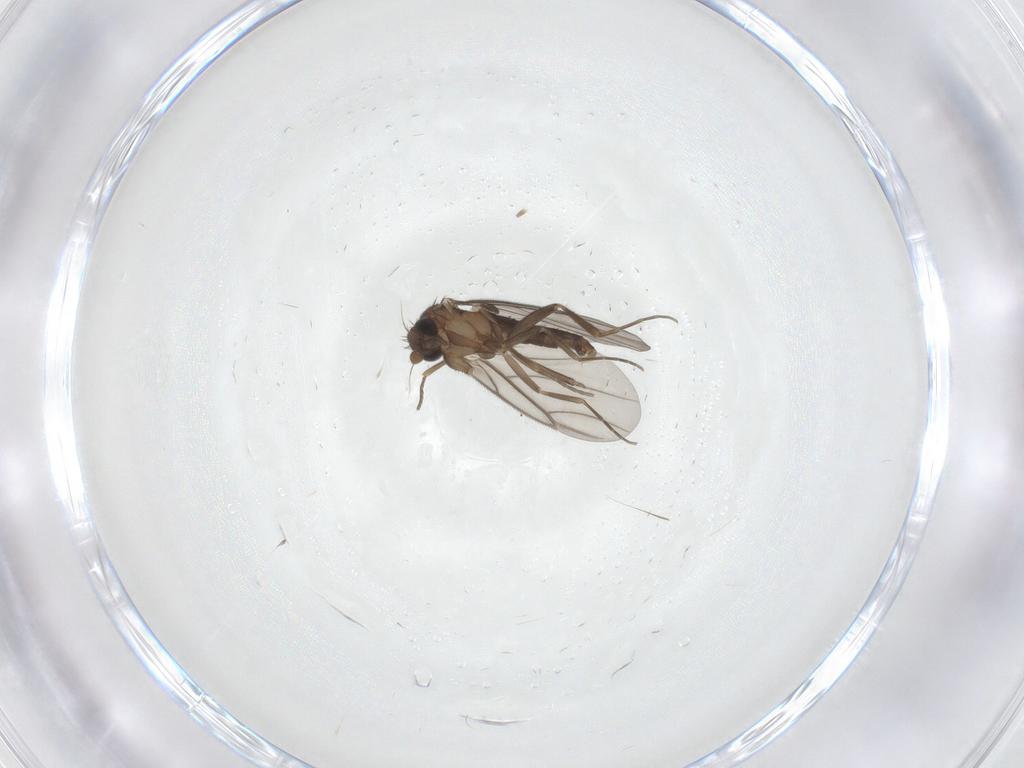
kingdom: Animalia
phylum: Arthropoda
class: Insecta
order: Diptera
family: Phoridae
